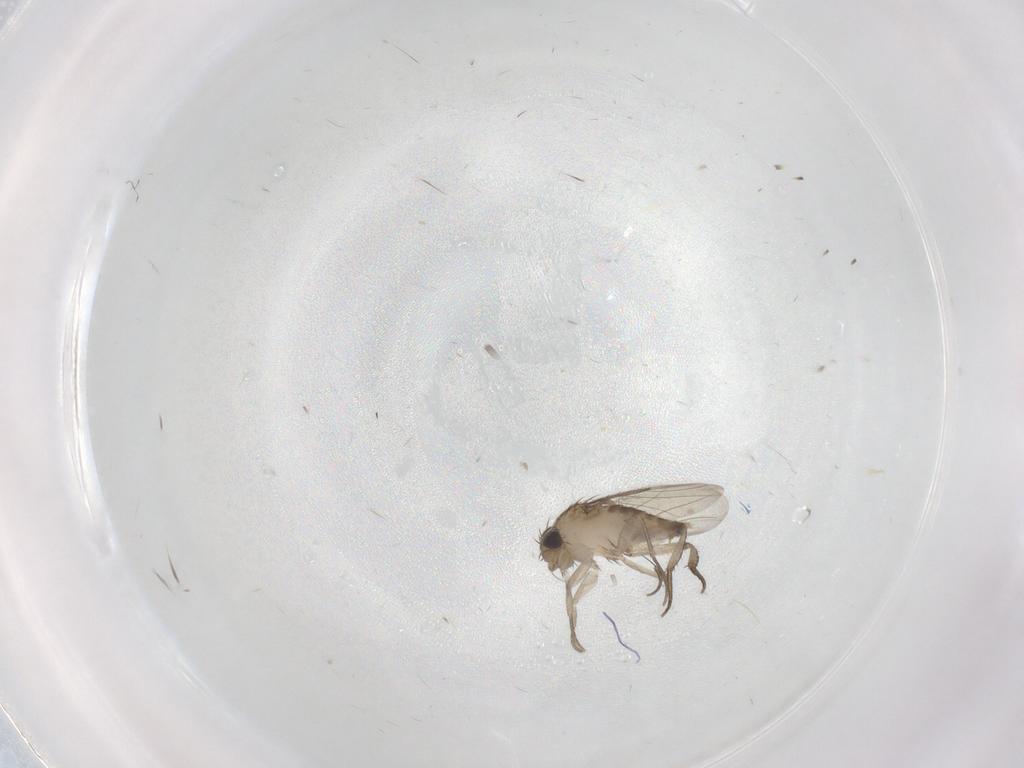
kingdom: Animalia
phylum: Arthropoda
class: Insecta
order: Diptera
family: Phoridae
